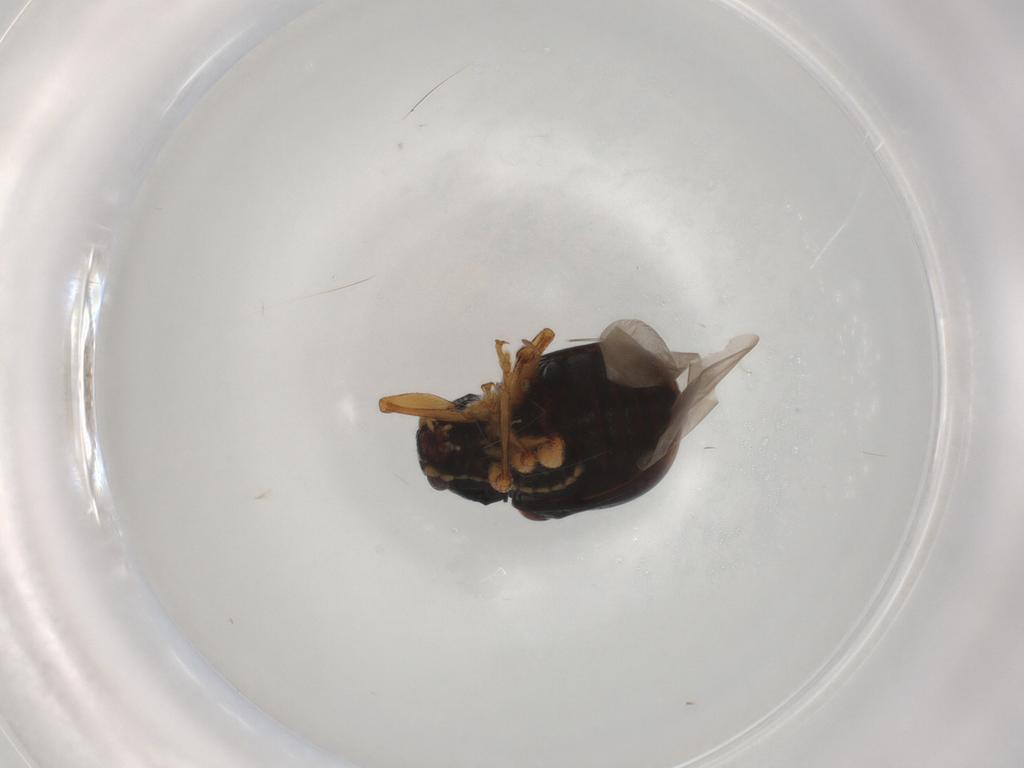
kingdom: Animalia
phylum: Arthropoda
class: Insecta
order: Coleoptera
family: Chrysomelidae
